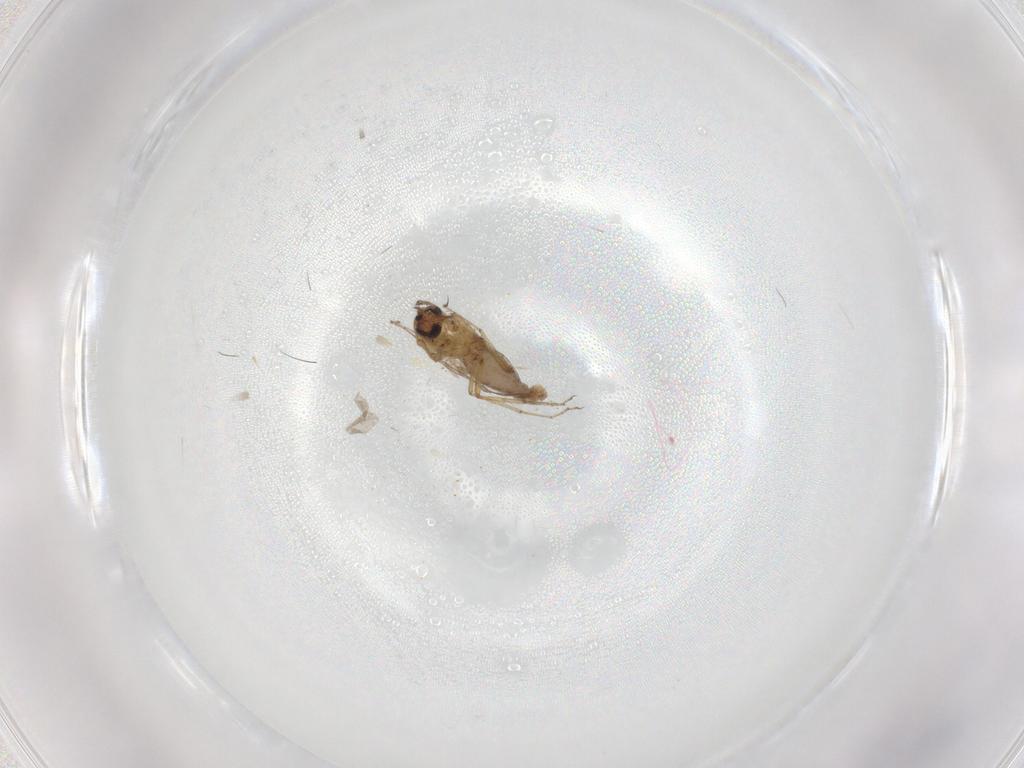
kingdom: Animalia
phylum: Arthropoda
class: Insecta
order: Diptera
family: Ceratopogonidae
